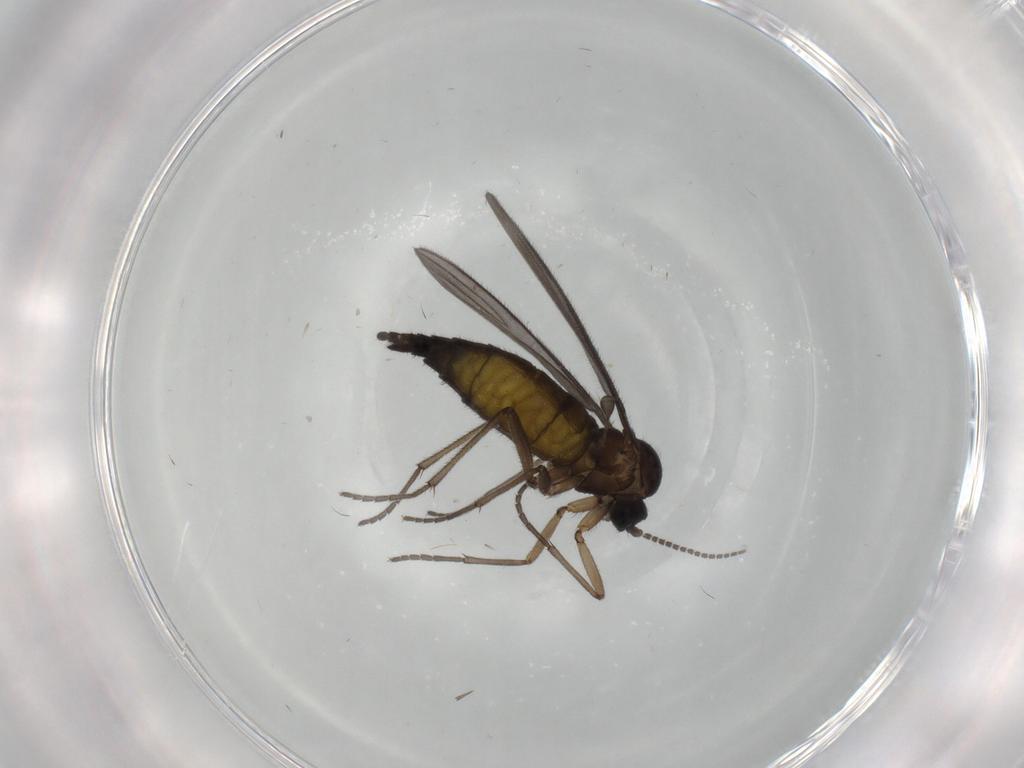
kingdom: Animalia
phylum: Arthropoda
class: Insecta
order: Diptera
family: Sciaridae
